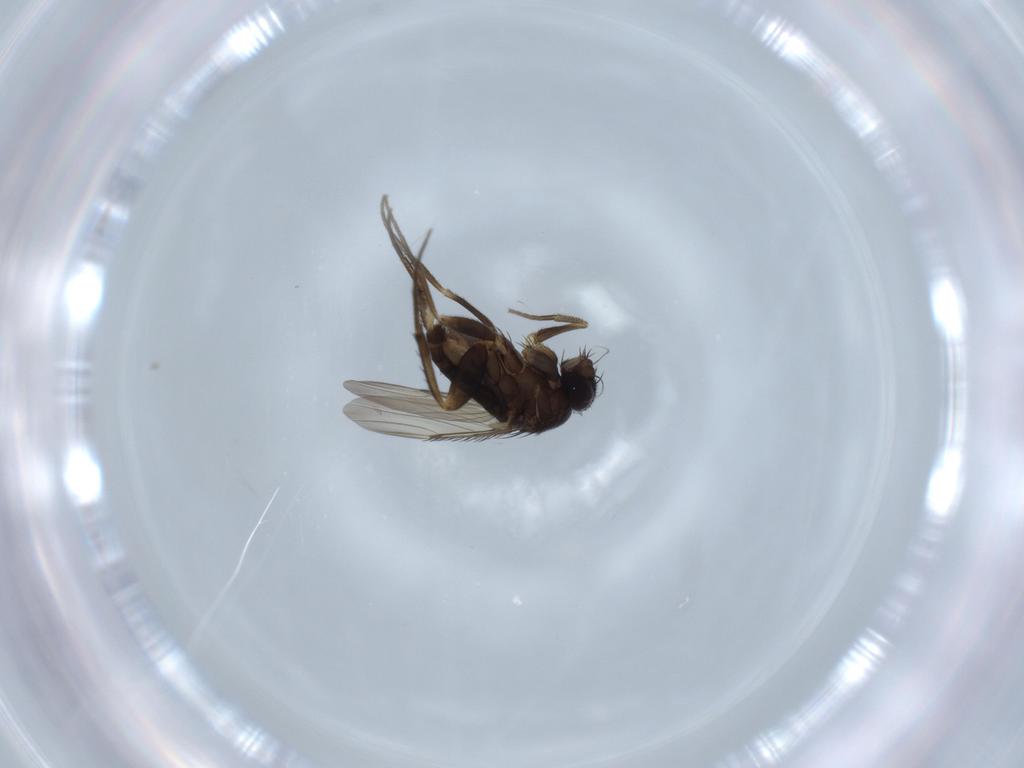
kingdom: Animalia
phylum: Arthropoda
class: Insecta
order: Diptera
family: Phoridae
